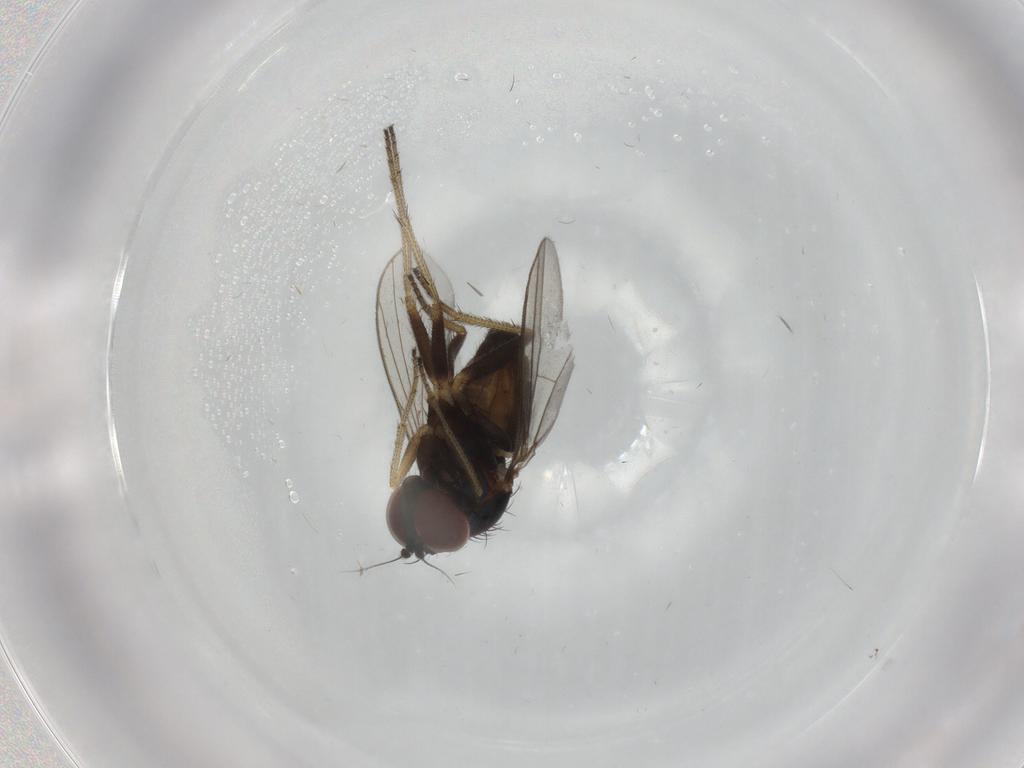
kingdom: Animalia
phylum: Arthropoda
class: Insecta
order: Diptera
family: Dolichopodidae
